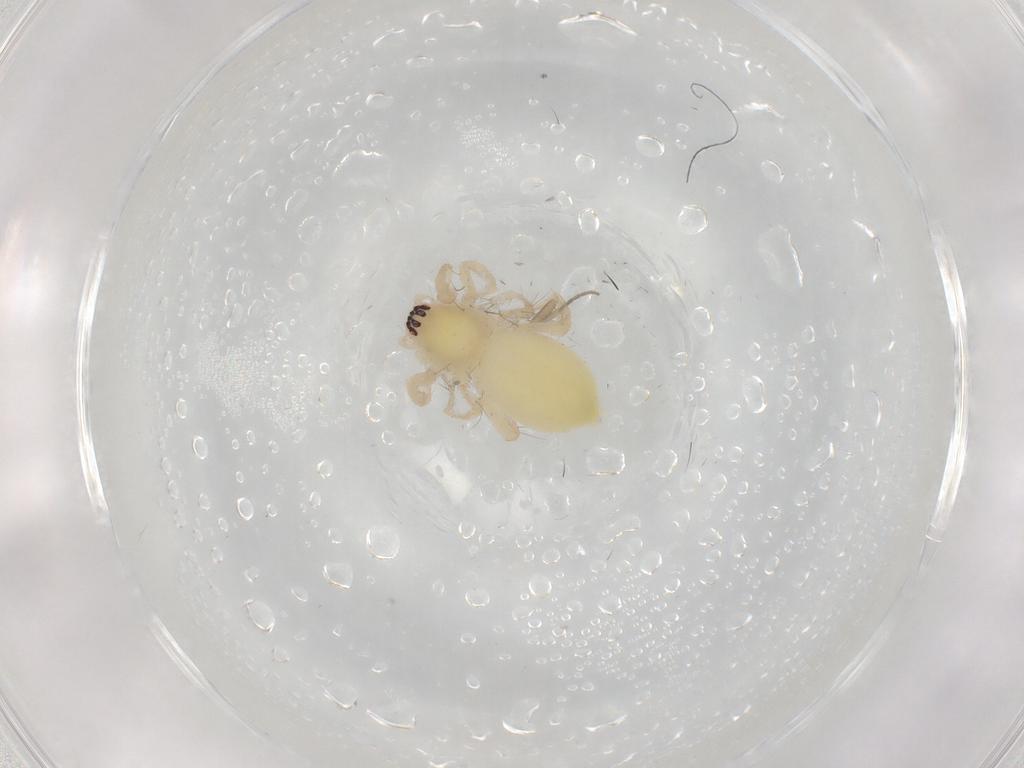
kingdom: Animalia
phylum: Arthropoda
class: Arachnida
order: Araneae
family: Anyphaenidae
